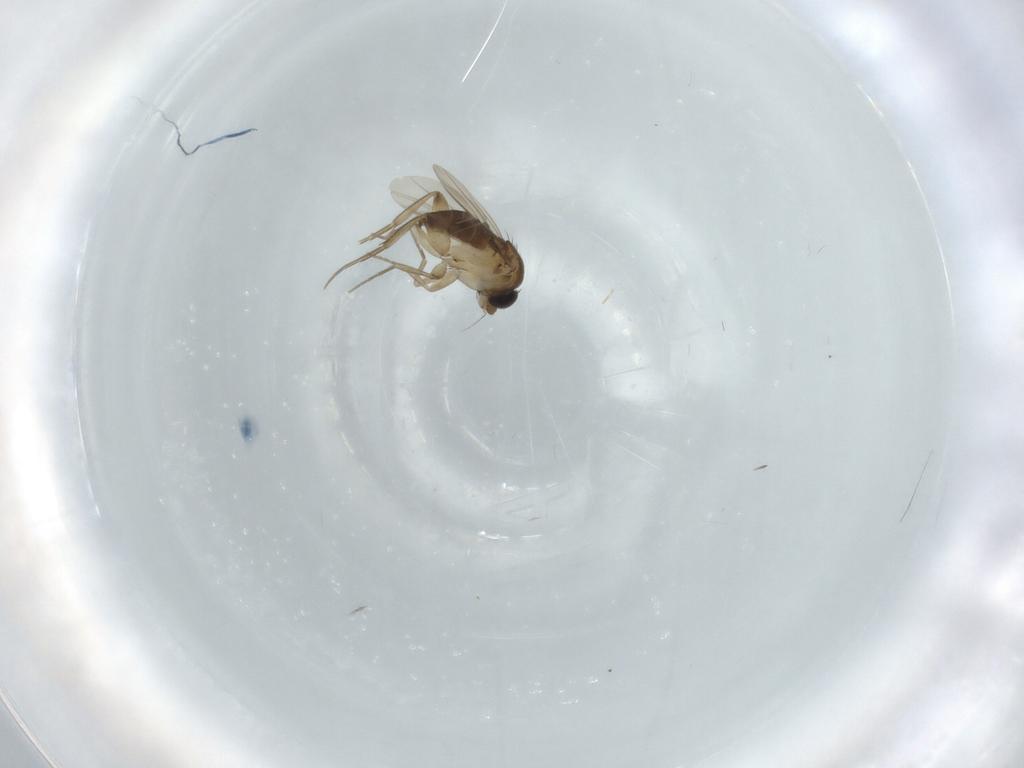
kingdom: Animalia
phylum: Arthropoda
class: Insecta
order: Diptera
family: Phoridae
